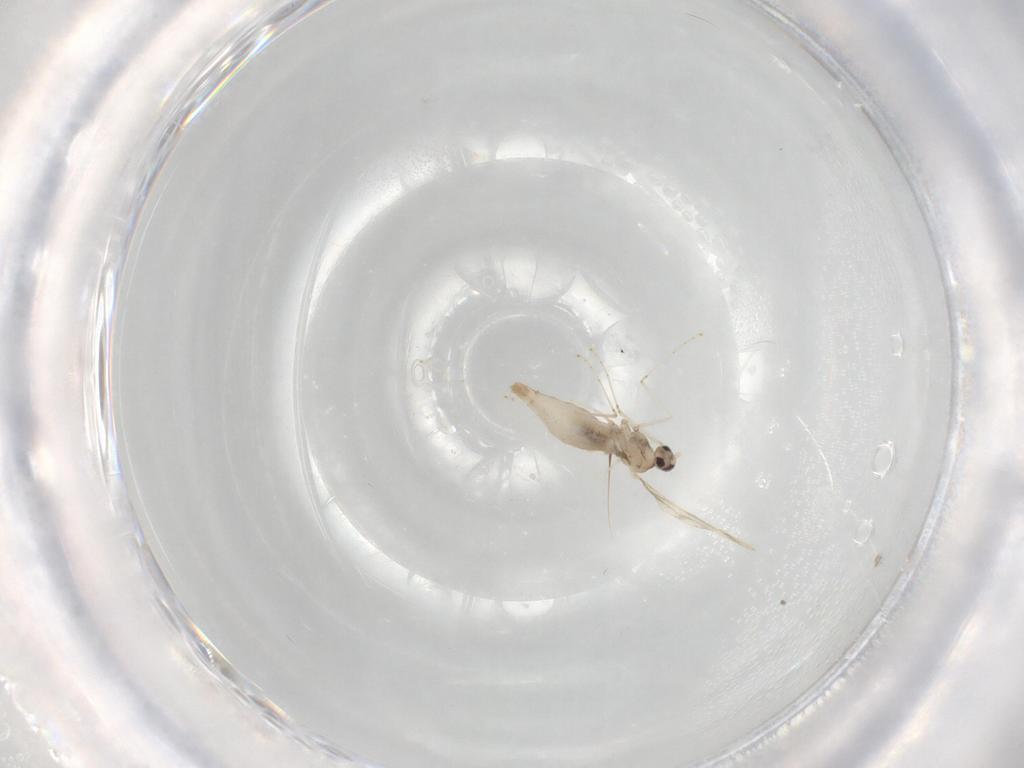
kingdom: Animalia
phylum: Arthropoda
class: Insecta
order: Diptera
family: Cecidomyiidae
